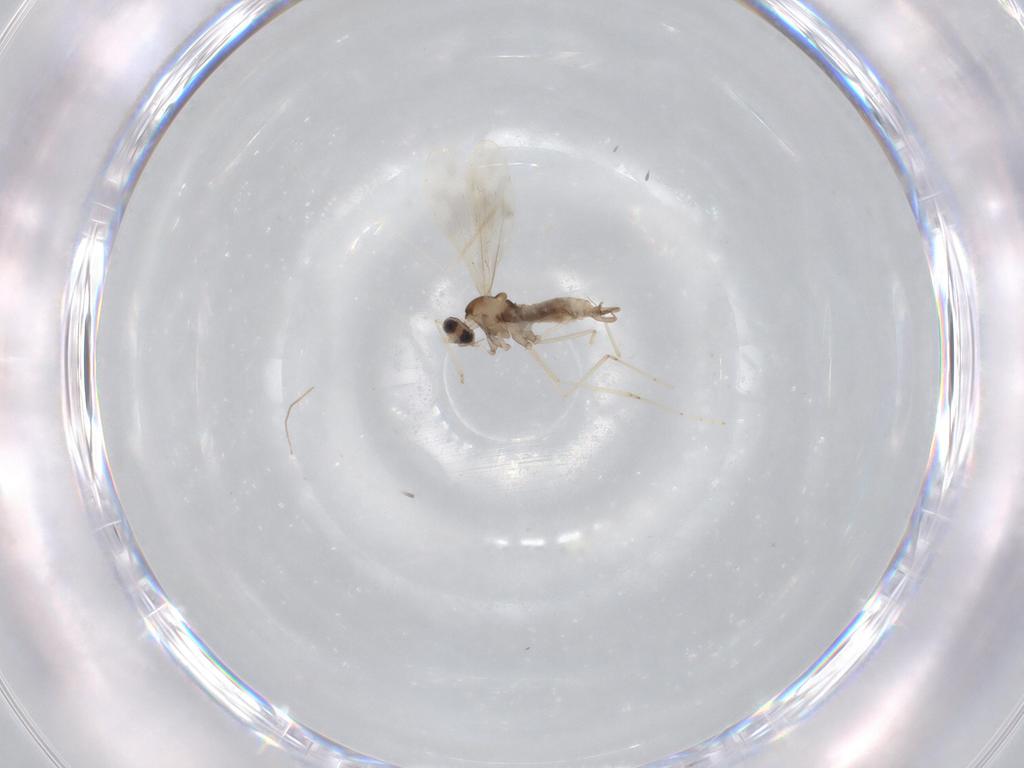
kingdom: Animalia
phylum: Arthropoda
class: Insecta
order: Diptera
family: Cecidomyiidae
